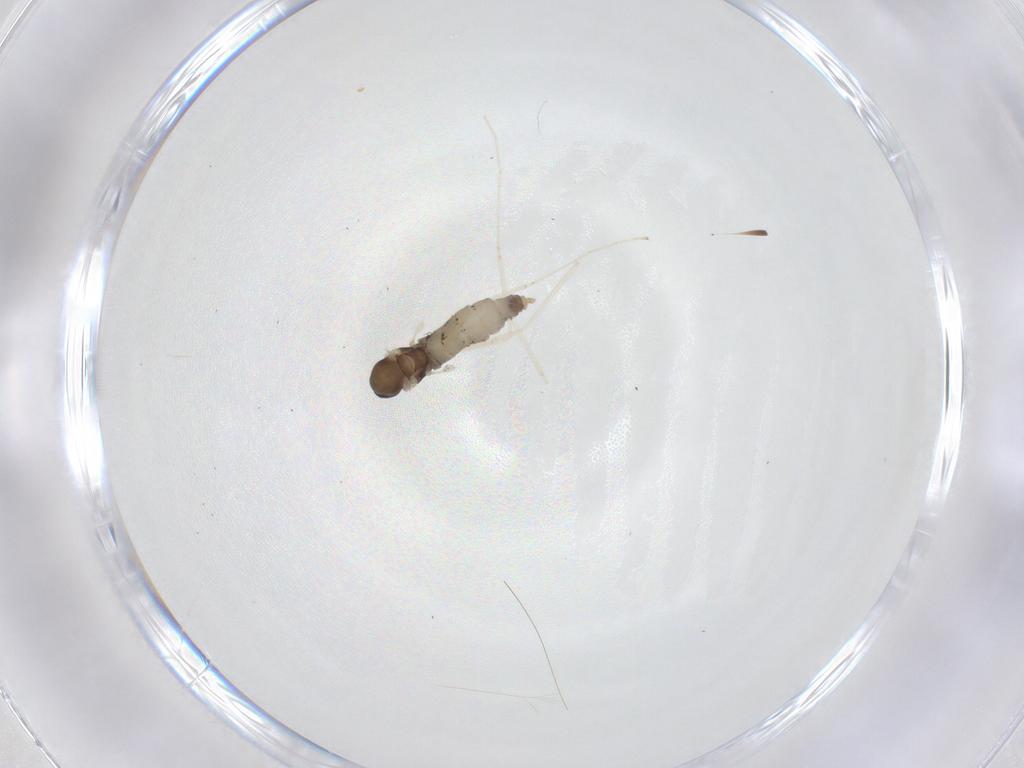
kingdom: Animalia
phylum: Arthropoda
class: Insecta
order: Diptera
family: Cecidomyiidae
